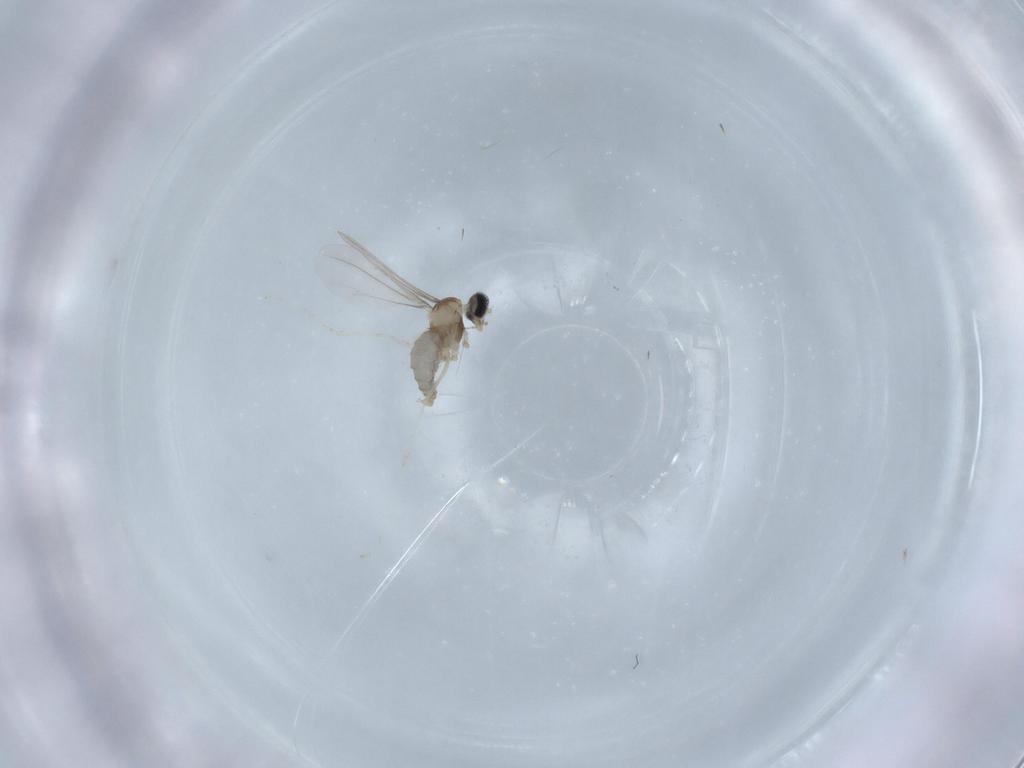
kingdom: Animalia
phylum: Arthropoda
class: Insecta
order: Diptera
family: Cecidomyiidae
